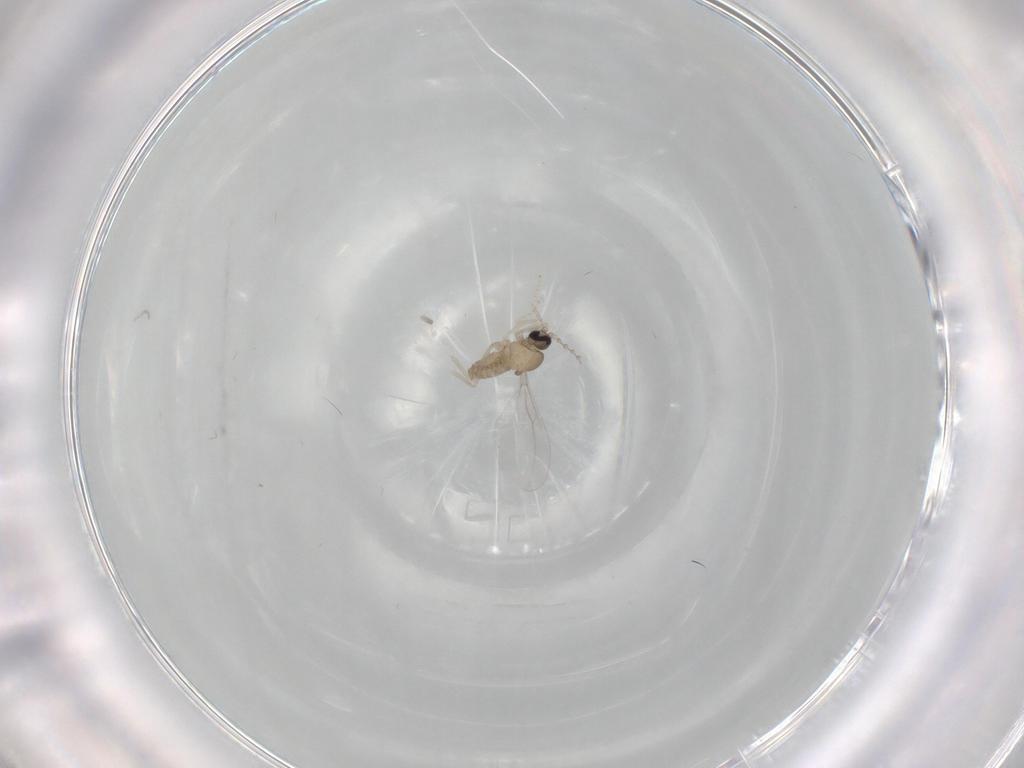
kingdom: Animalia
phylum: Arthropoda
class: Insecta
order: Diptera
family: Cecidomyiidae
